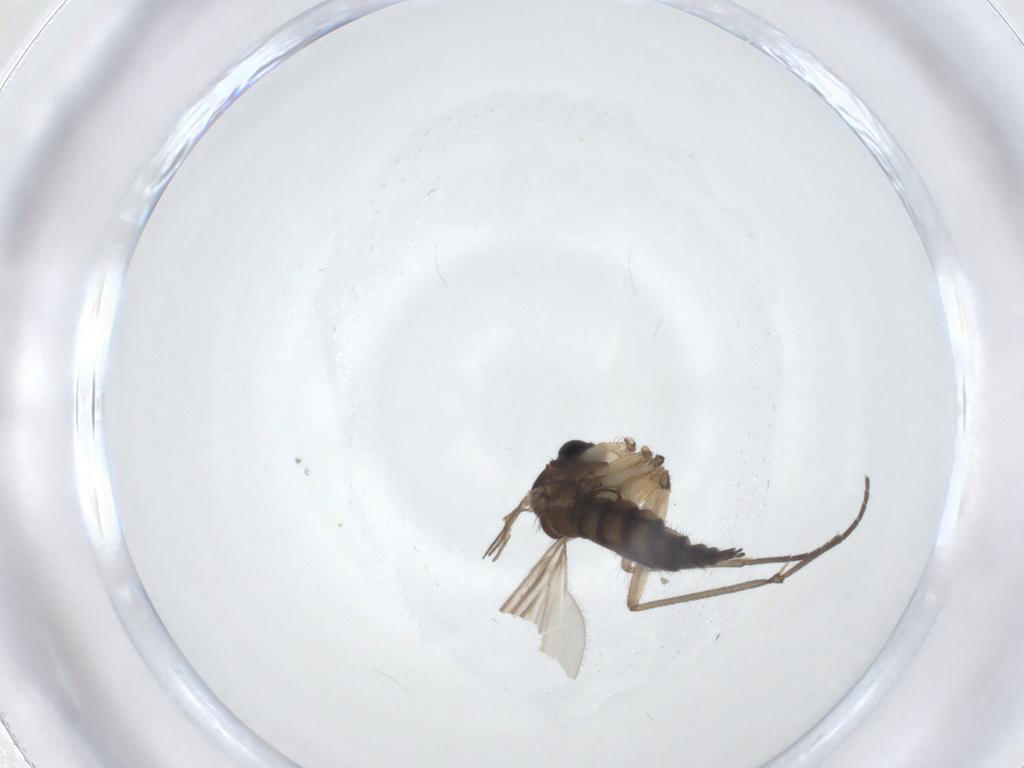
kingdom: Animalia
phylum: Arthropoda
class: Insecta
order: Diptera
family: Sciaridae
